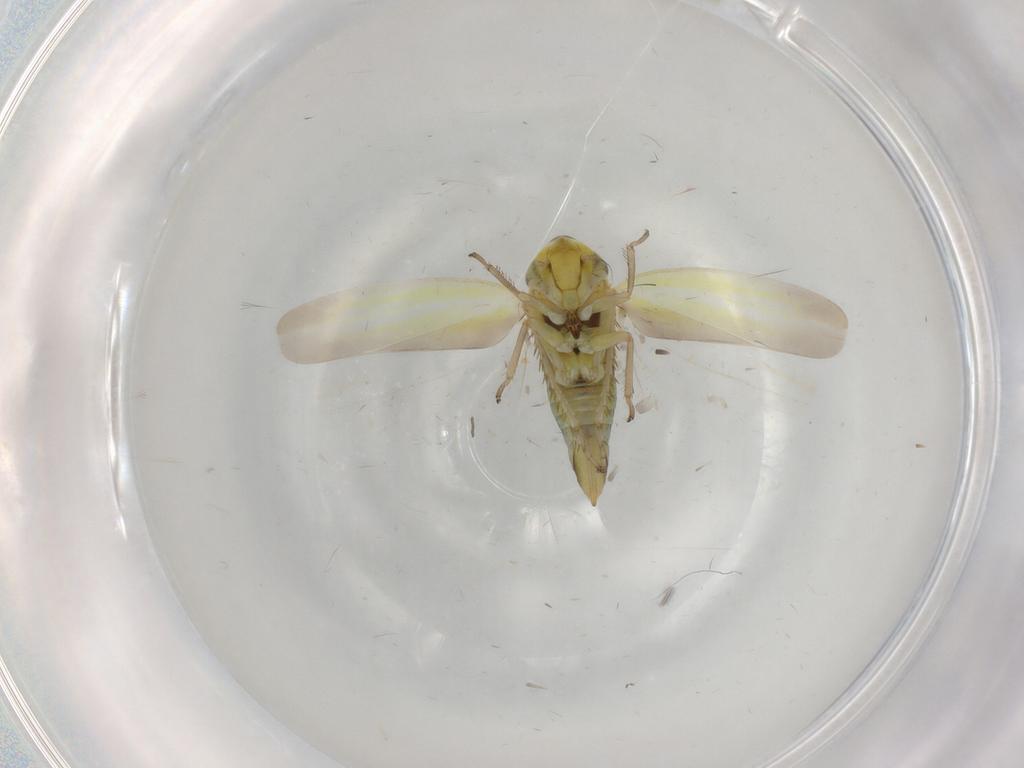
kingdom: Animalia
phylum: Arthropoda
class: Insecta
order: Hemiptera
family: Cicadellidae
